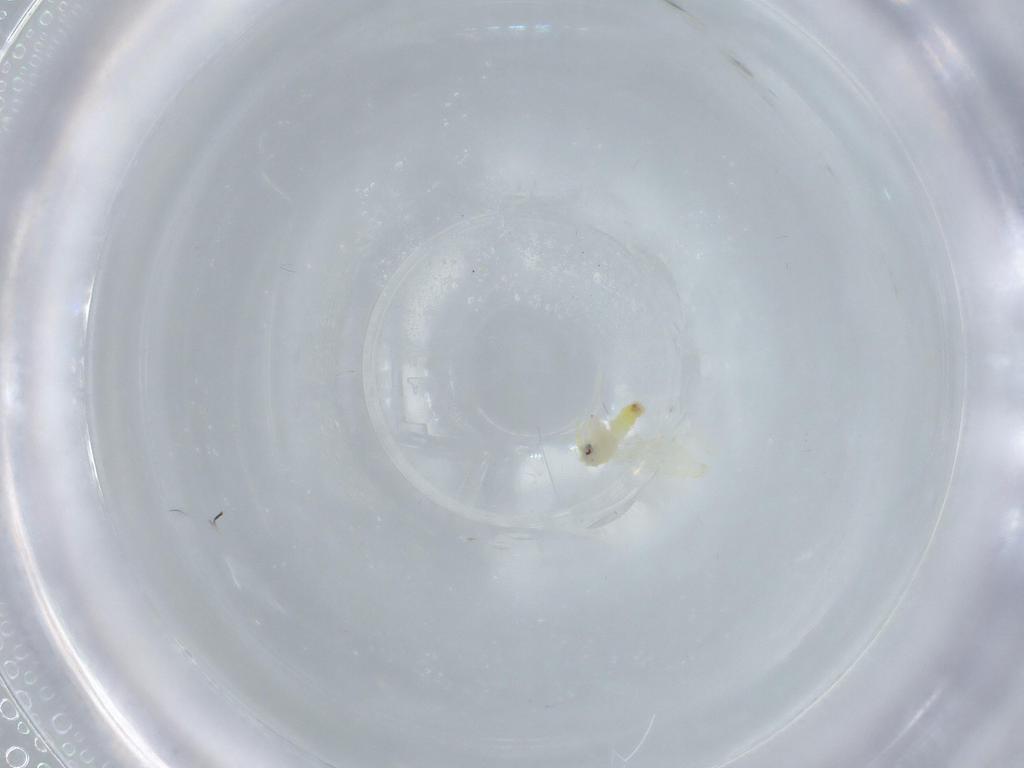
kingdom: Animalia
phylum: Arthropoda
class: Insecta
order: Hemiptera
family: Aleyrodidae
